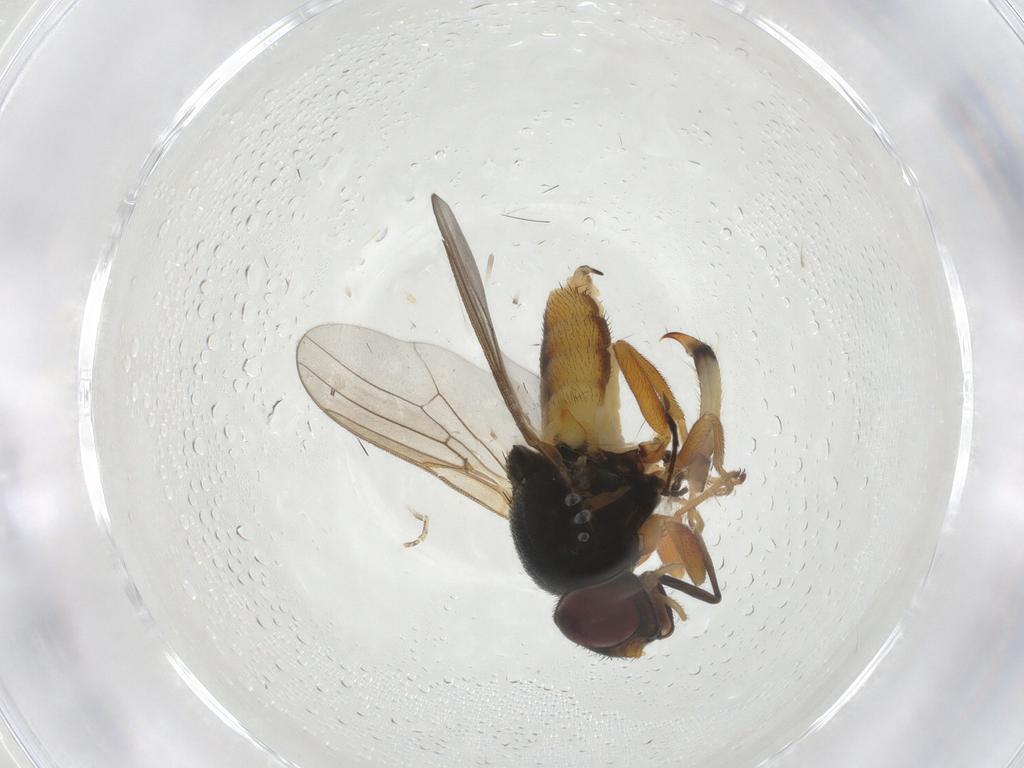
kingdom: Animalia
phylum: Arthropoda
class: Insecta
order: Diptera
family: Chloropidae
